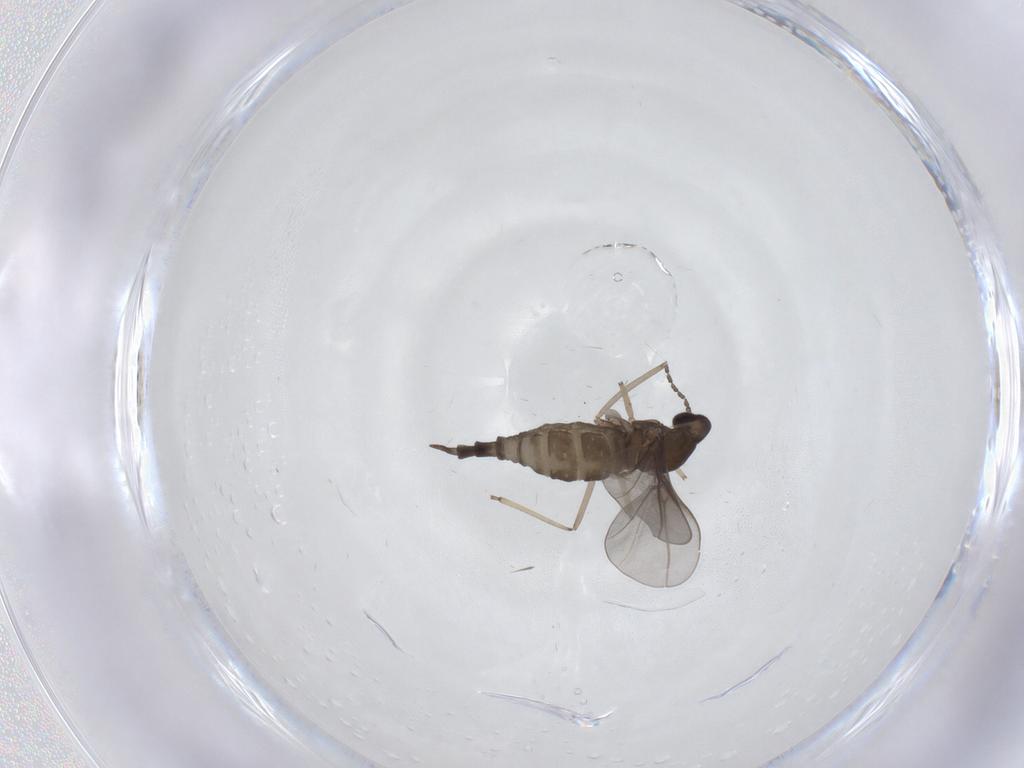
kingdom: Animalia
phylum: Arthropoda
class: Insecta
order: Diptera
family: Cecidomyiidae
